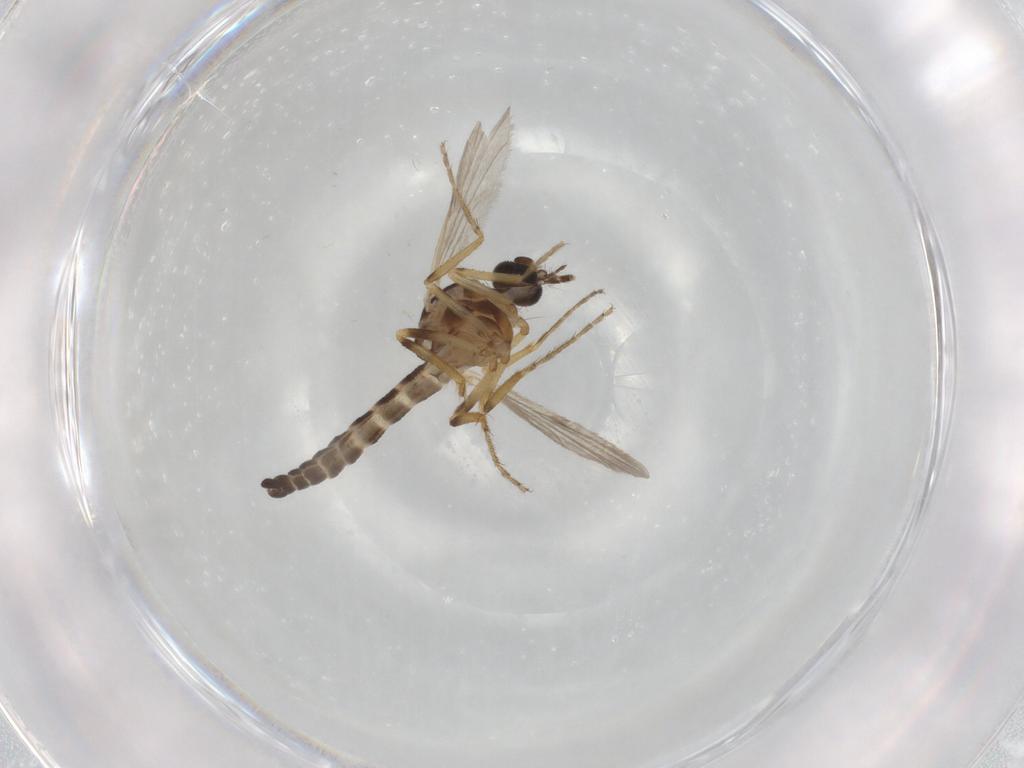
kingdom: Animalia
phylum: Arthropoda
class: Insecta
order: Diptera
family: Ceratopogonidae
